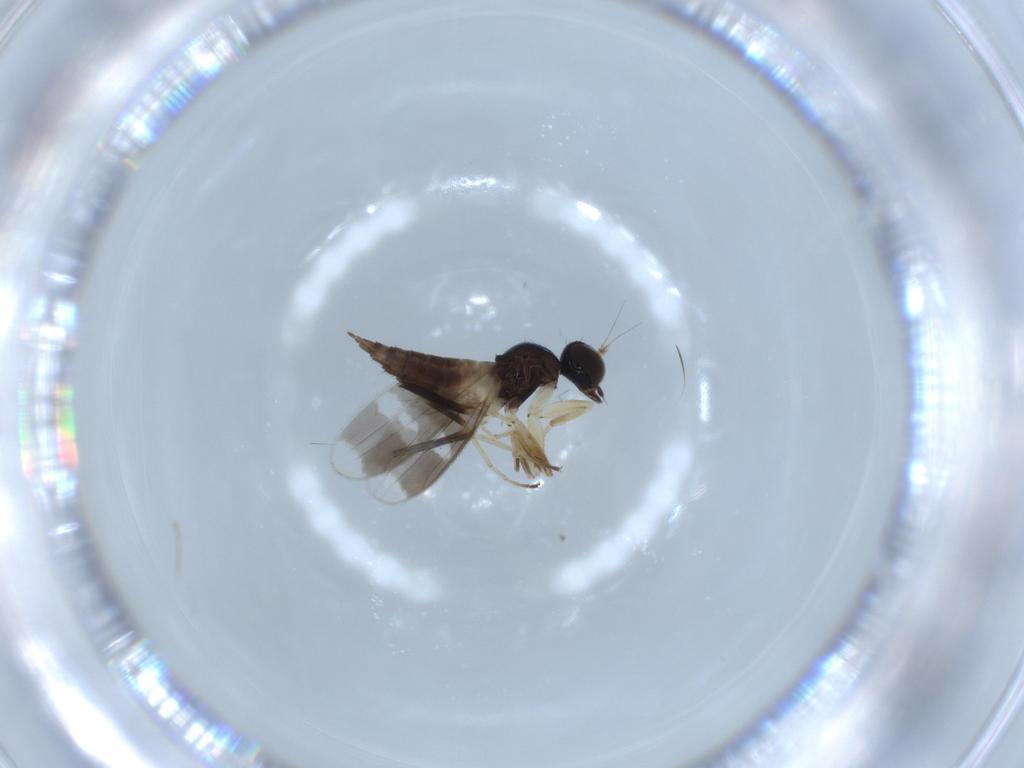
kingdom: Animalia
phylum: Arthropoda
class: Insecta
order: Diptera
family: Hybotidae
